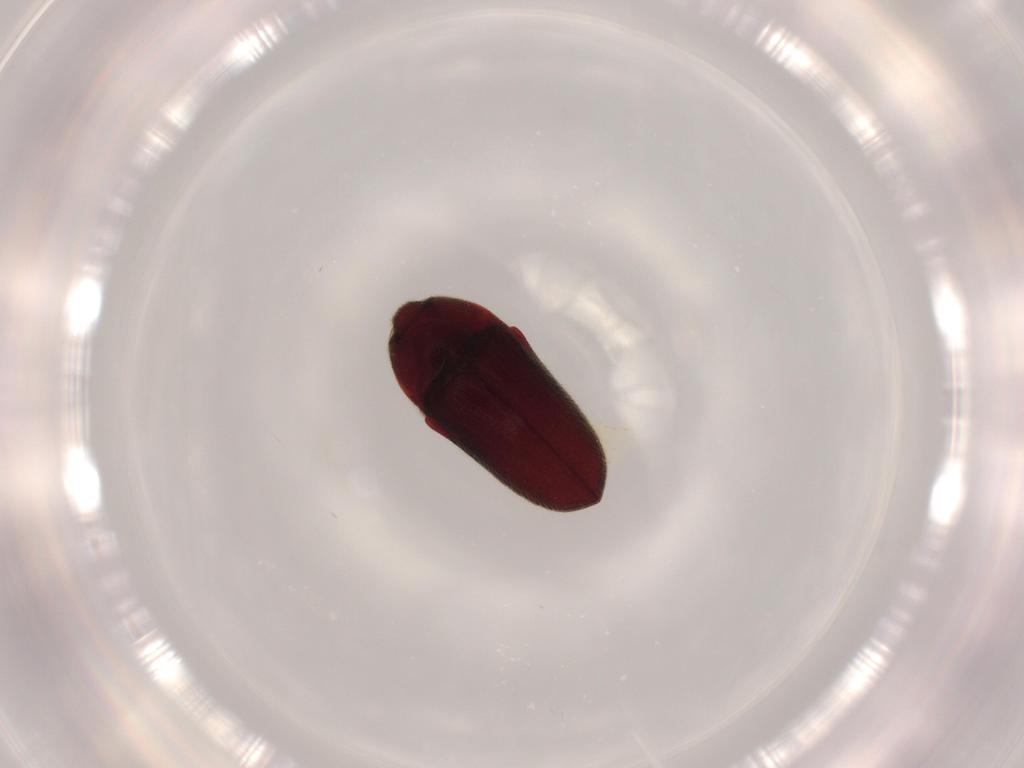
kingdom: Animalia
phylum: Arthropoda
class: Insecta
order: Coleoptera
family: Throscidae
